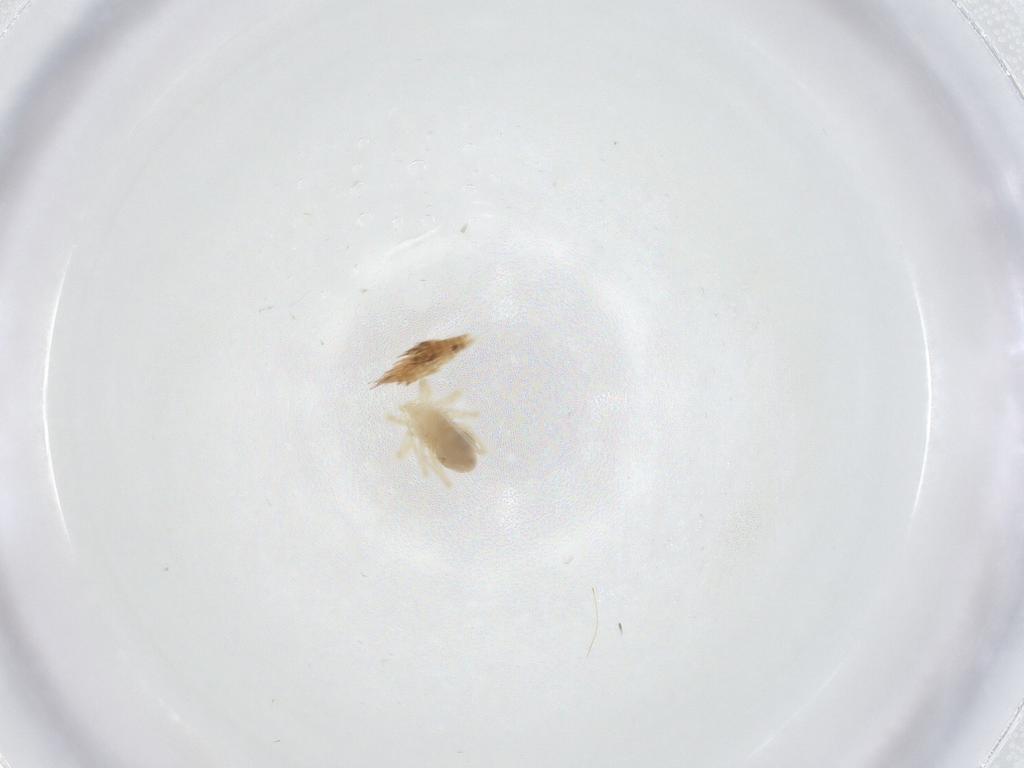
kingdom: Animalia
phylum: Arthropoda
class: Arachnida
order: Trombidiformes
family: Anystidae
